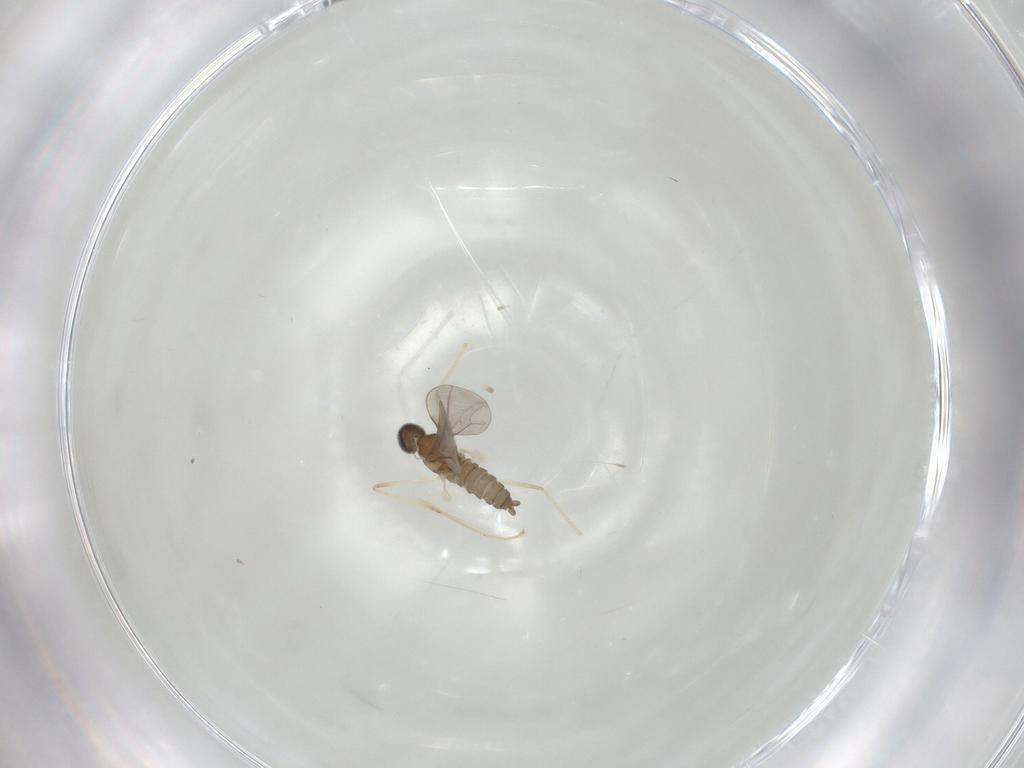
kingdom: Animalia
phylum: Arthropoda
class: Insecta
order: Diptera
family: Cecidomyiidae
